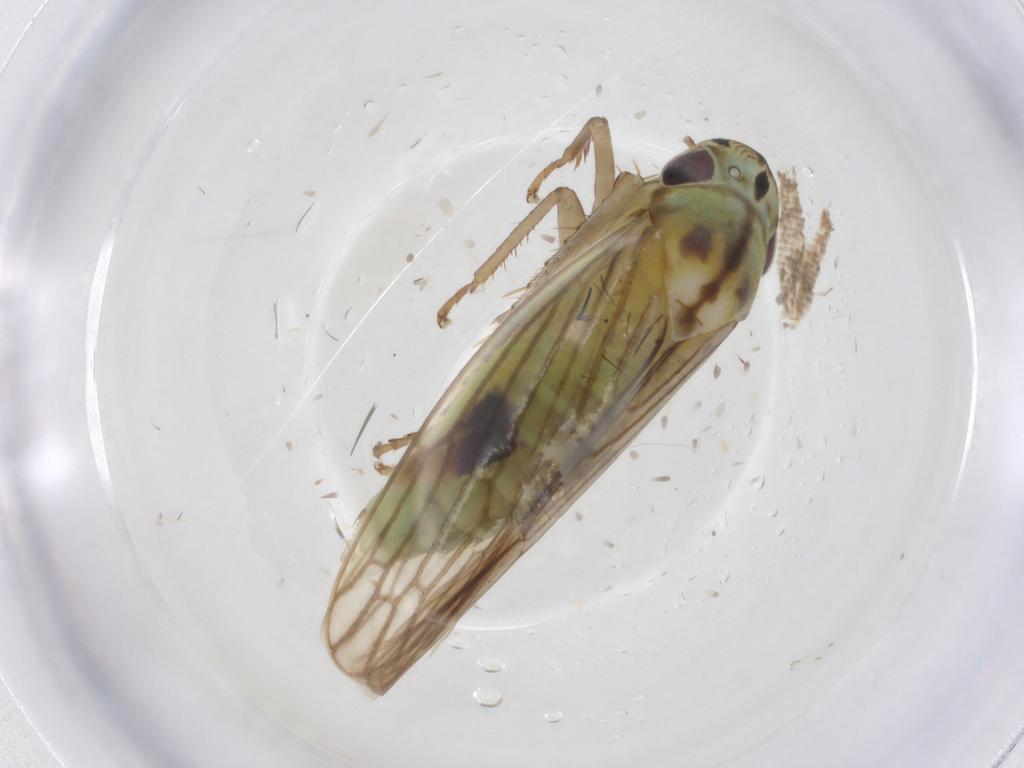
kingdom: Animalia
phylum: Arthropoda
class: Insecta
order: Hemiptera
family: Cicadellidae
